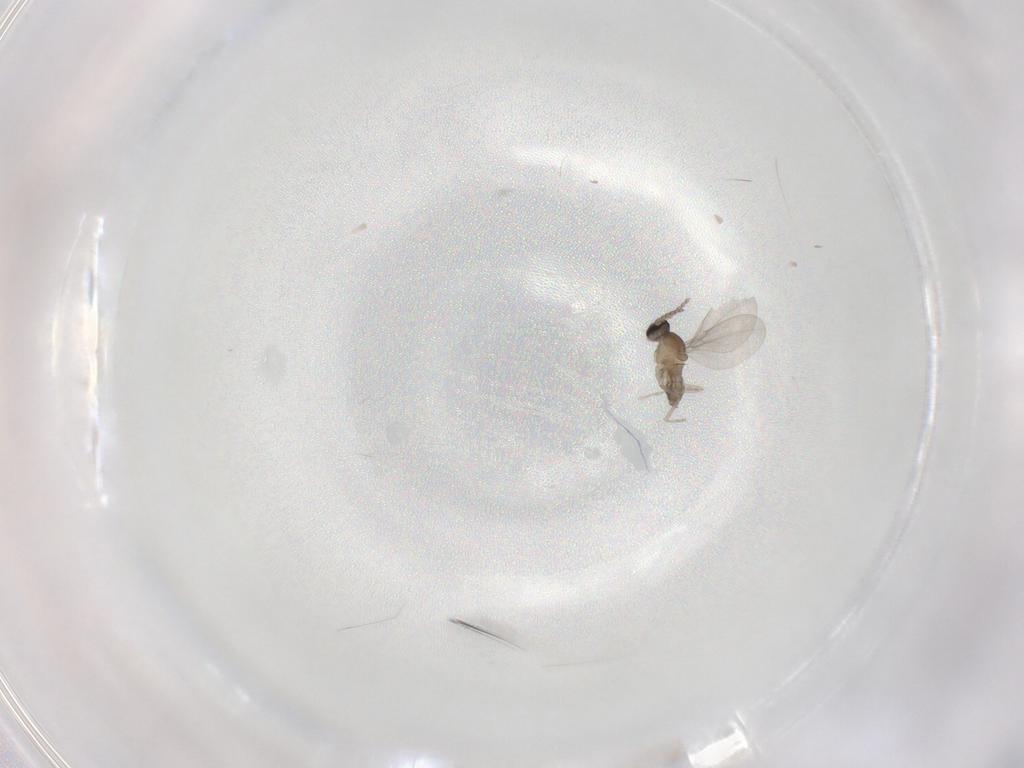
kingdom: Animalia
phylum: Arthropoda
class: Insecta
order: Diptera
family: Cecidomyiidae
